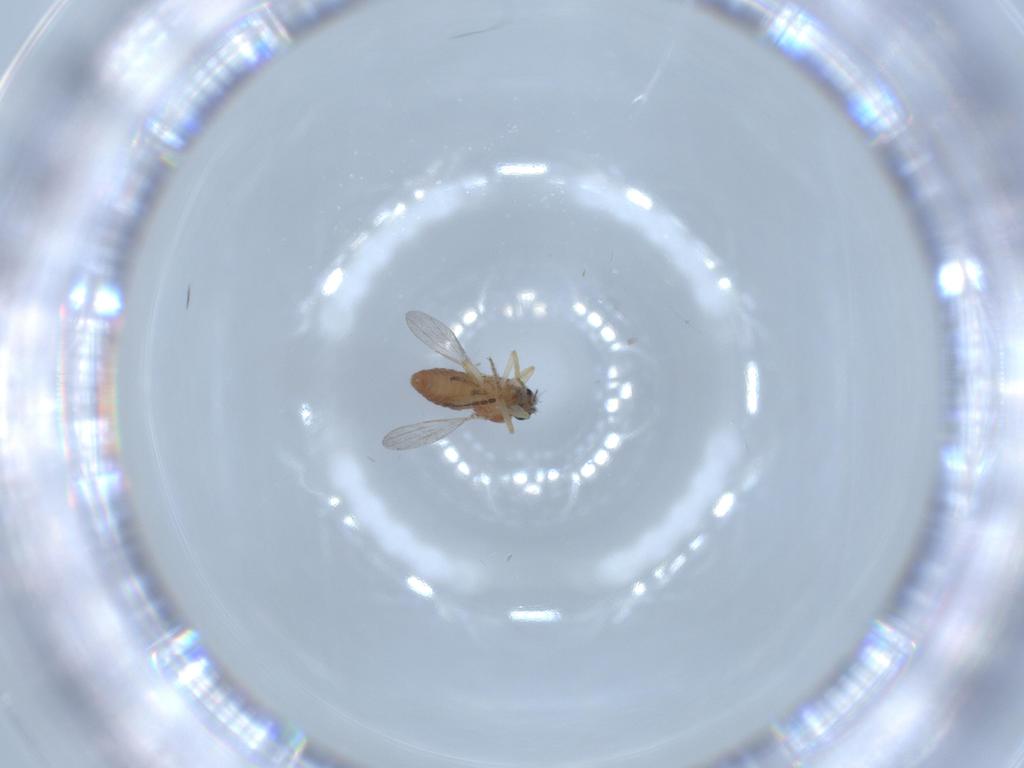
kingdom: Animalia
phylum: Arthropoda
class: Insecta
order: Diptera
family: Ceratopogonidae
